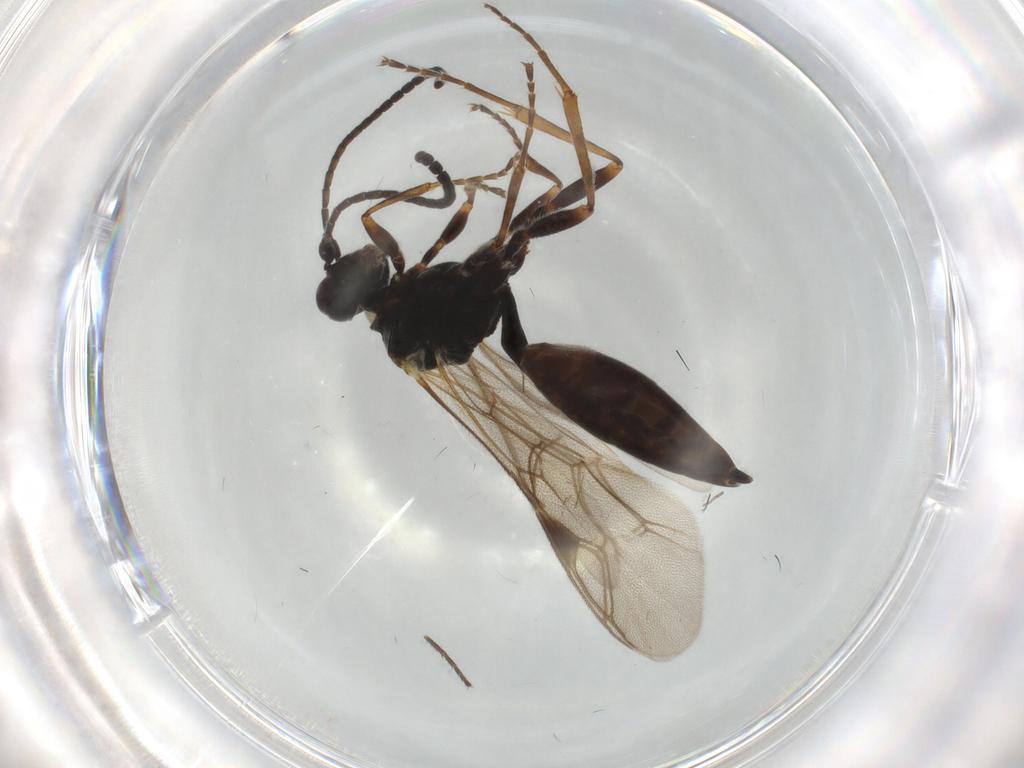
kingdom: Animalia
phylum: Arthropoda
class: Insecta
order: Hymenoptera
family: Ichneumonidae
